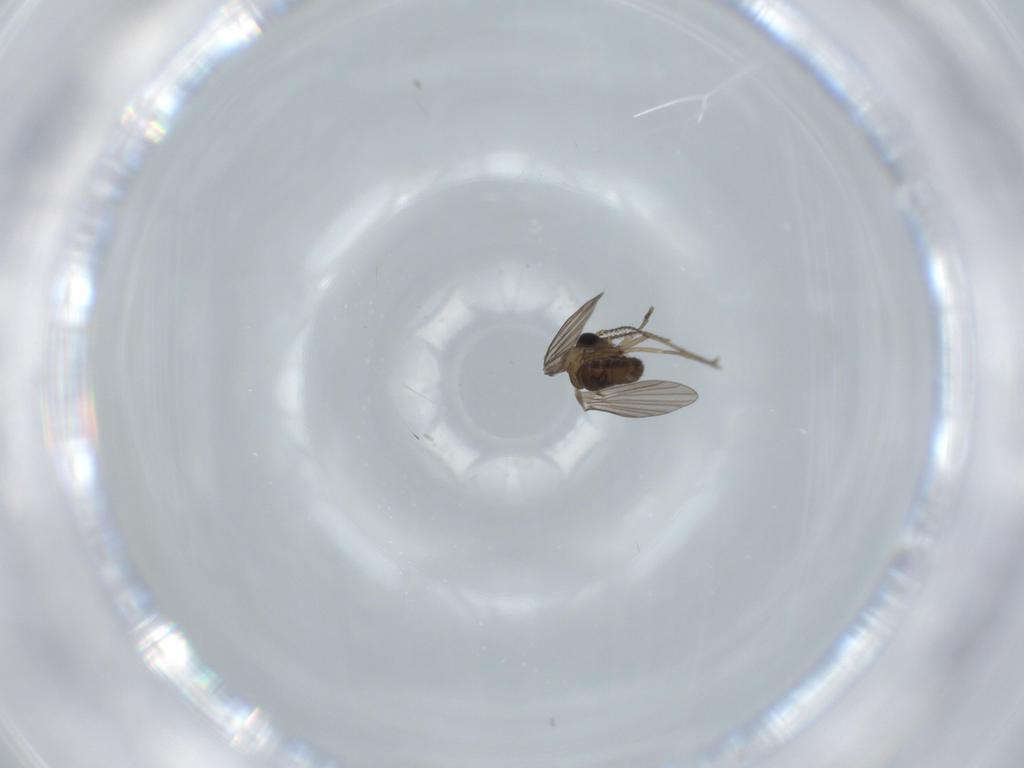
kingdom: Animalia
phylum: Arthropoda
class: Insecta
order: Diptera
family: Psychodidae
